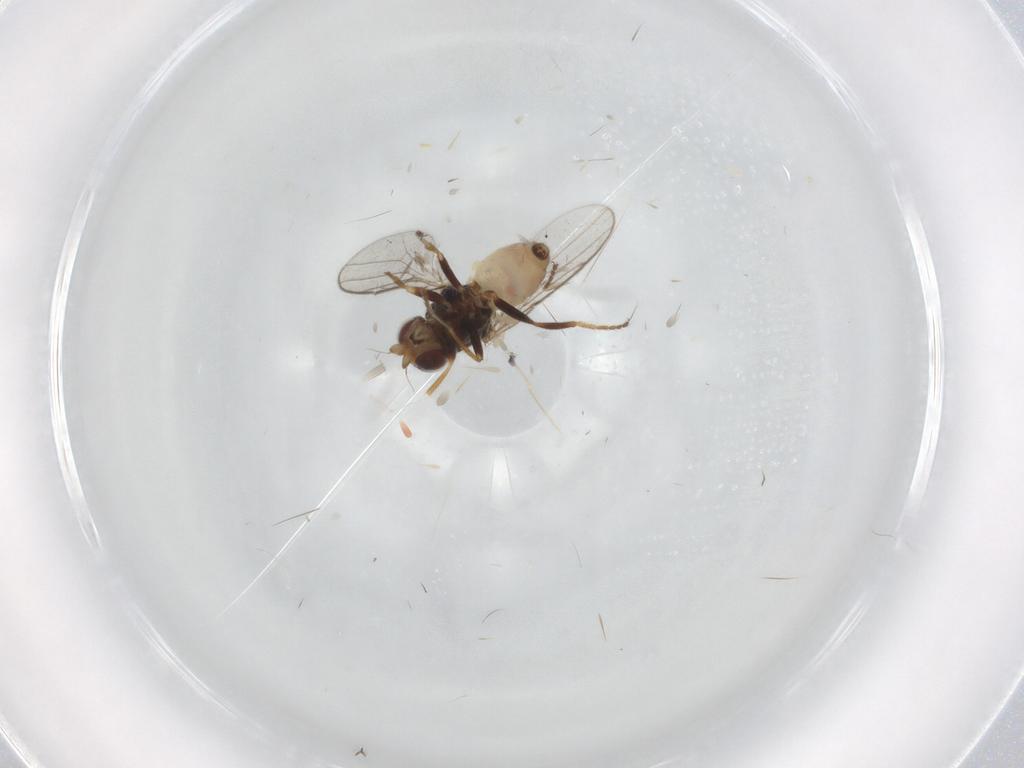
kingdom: Animalia
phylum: Arthropoda
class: Insecta
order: Diptera
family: Chloropidae
